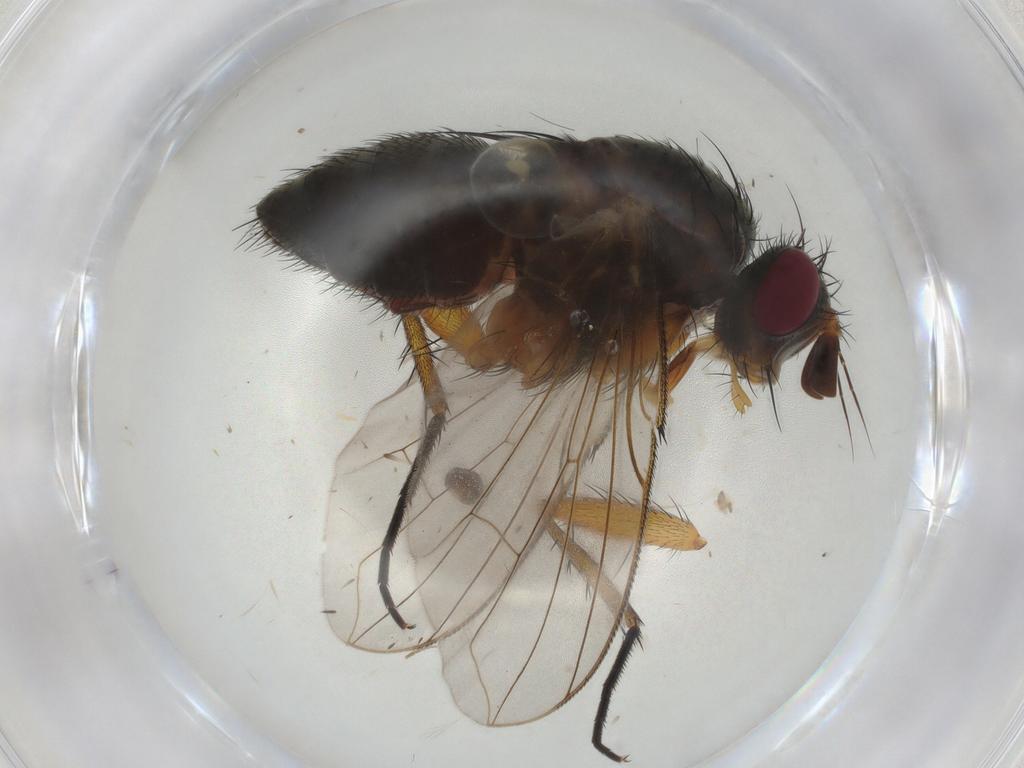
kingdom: Animalia
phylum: Arthropoda
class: Insecta
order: Diptera
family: Anthomyiidae
